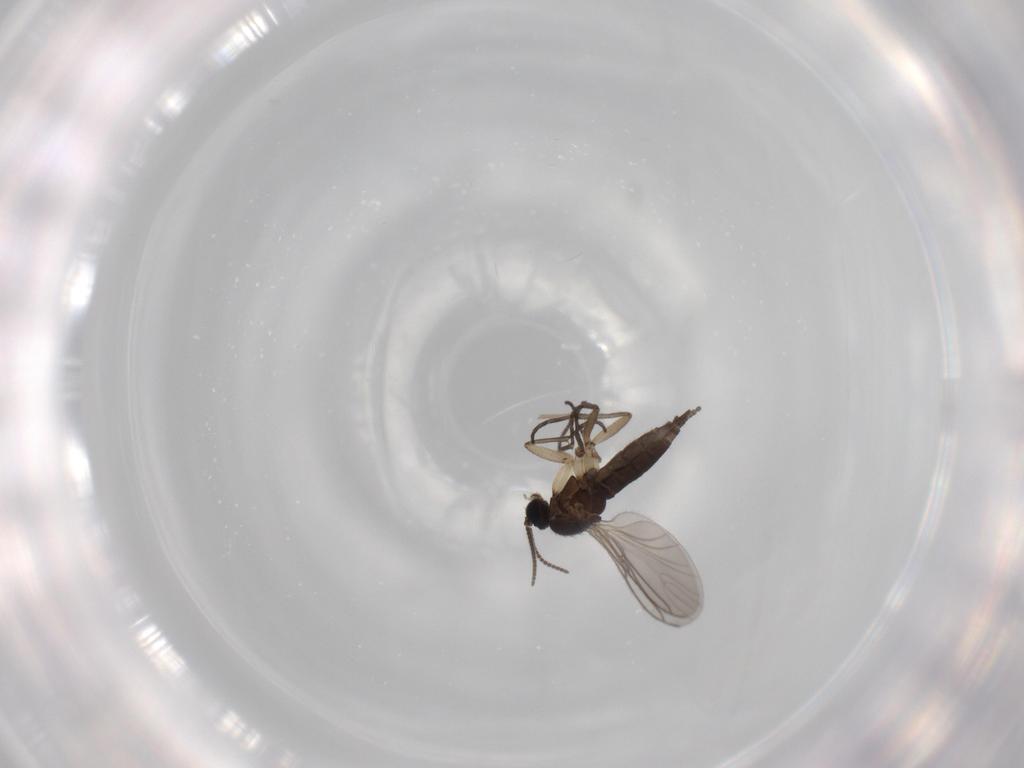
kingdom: Animalia
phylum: Arthropoda
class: Insecta
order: Diptera
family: Sciaridae
